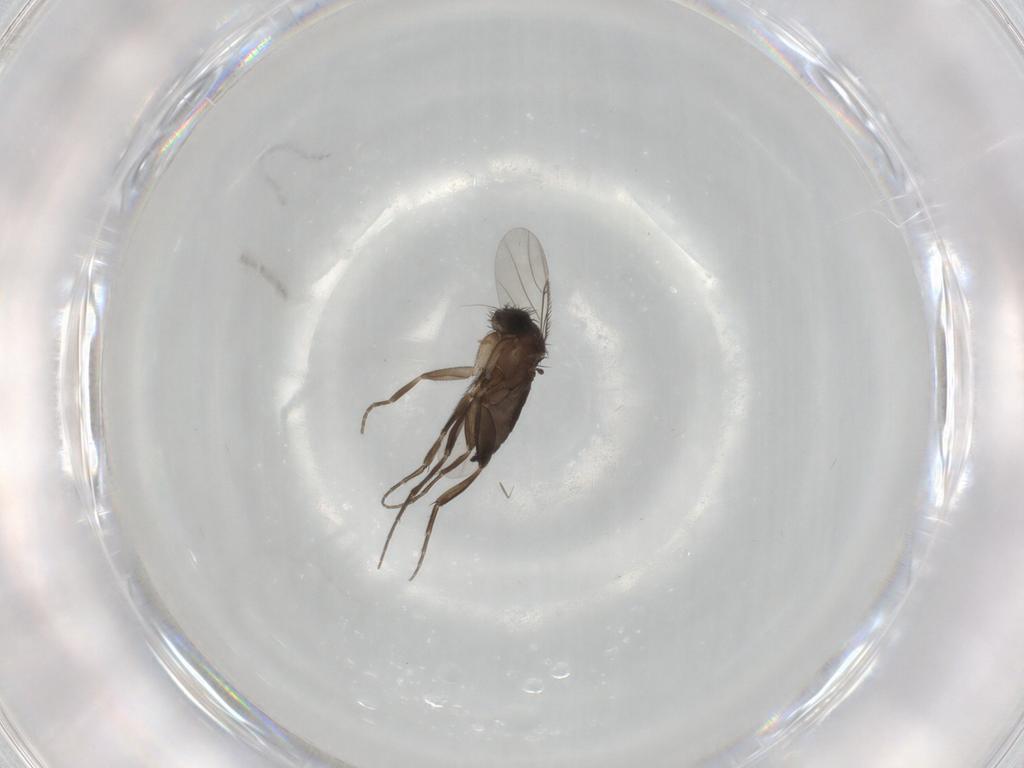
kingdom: Animalia
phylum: Arthropoda
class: Insecta
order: Diptera
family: Phoridae
